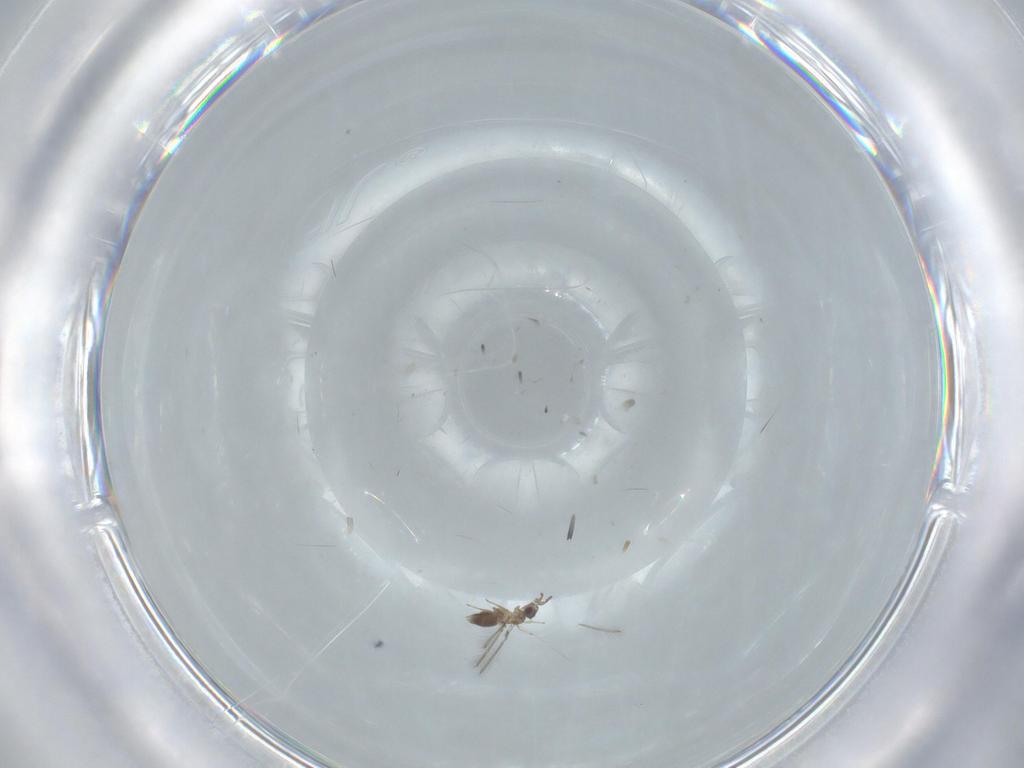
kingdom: Animalia
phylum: Arthropoda
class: Insecta
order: Hymenoptera
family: Mymaridae
